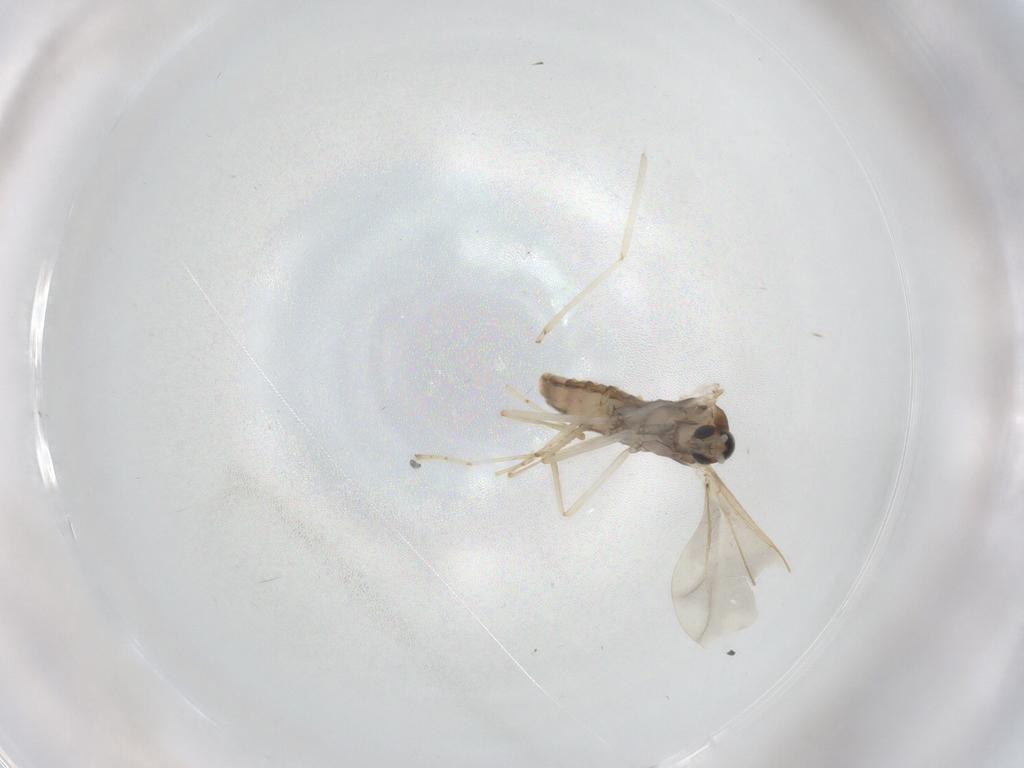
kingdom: Animalia
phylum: Arthropoda
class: Insecta
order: Diptera
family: Cecidomyiidae
